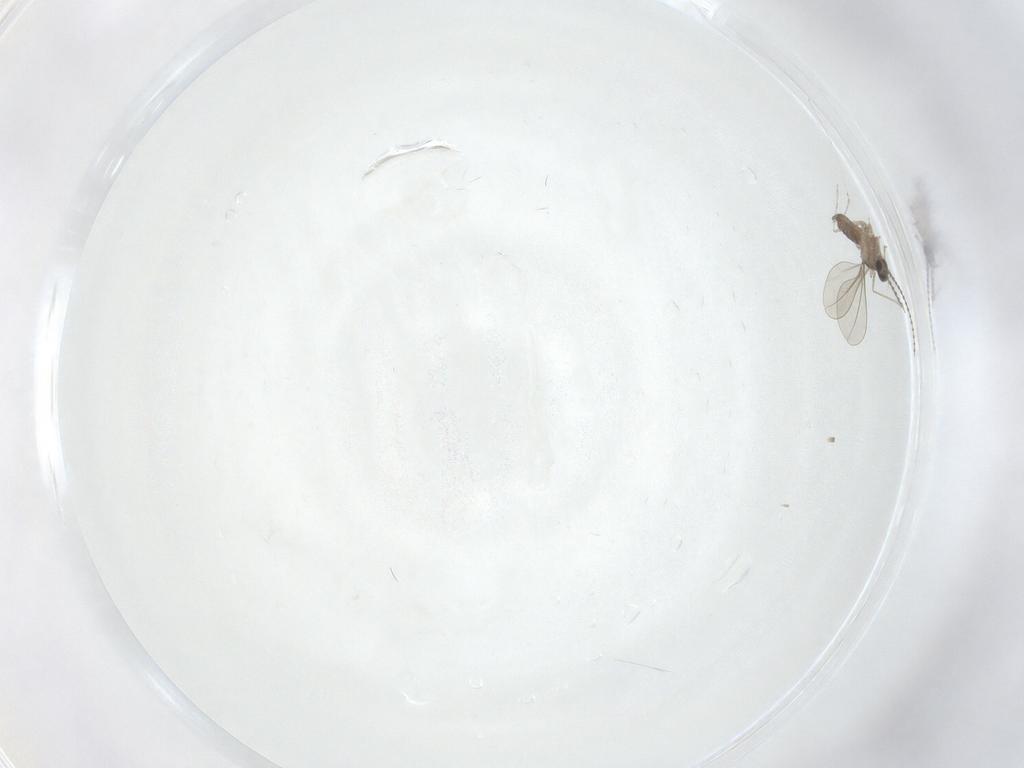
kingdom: Animalia
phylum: Arthropoda
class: Insecta
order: Diptera
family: Cecidomyiidae
